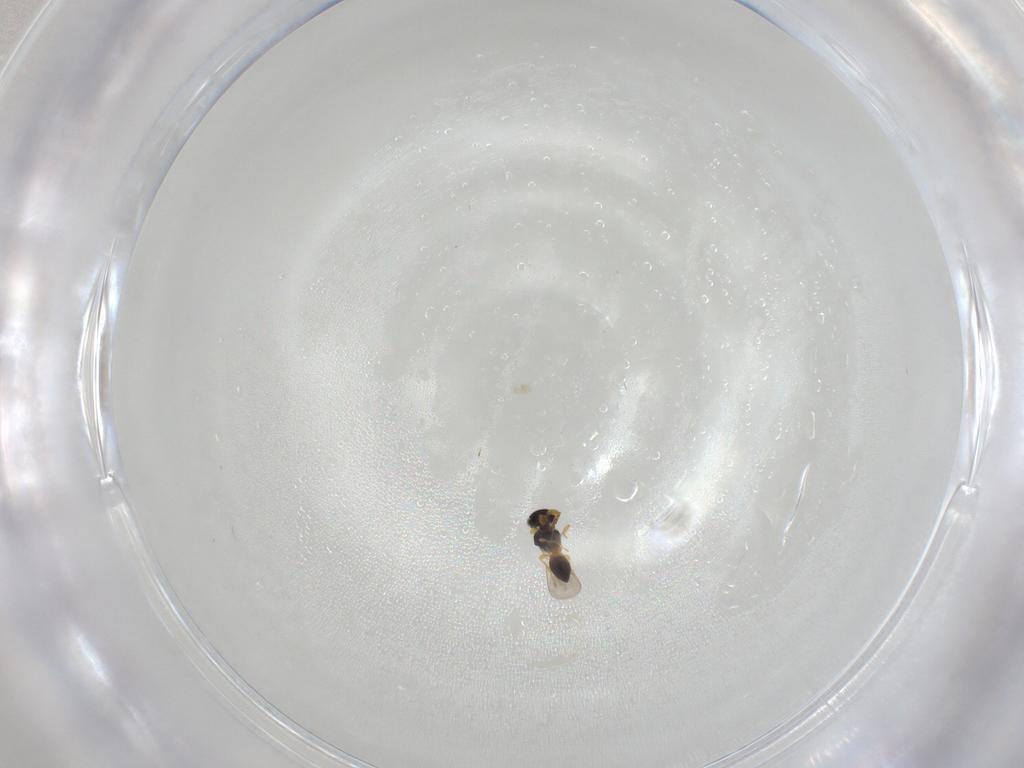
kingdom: Animalia
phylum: Arthropoda
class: Insecta
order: Hymenoptera
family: Platygastridae
